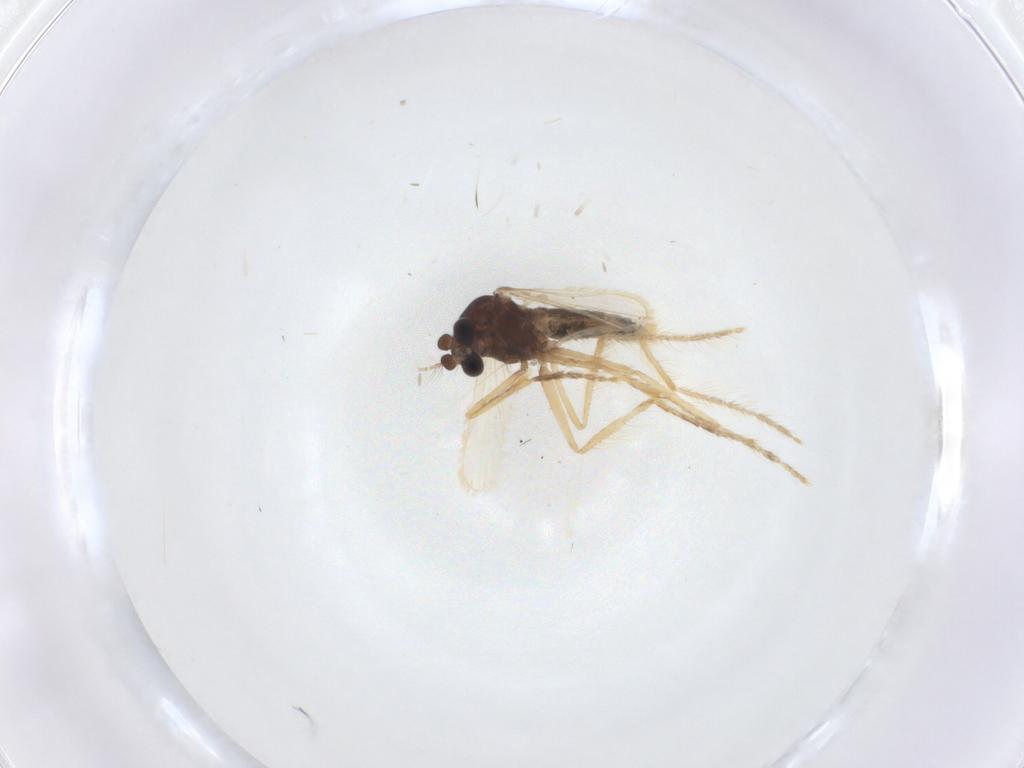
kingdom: Animalia
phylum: Arthropoda
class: Insecta
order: Diptera
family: Corethrellidae
